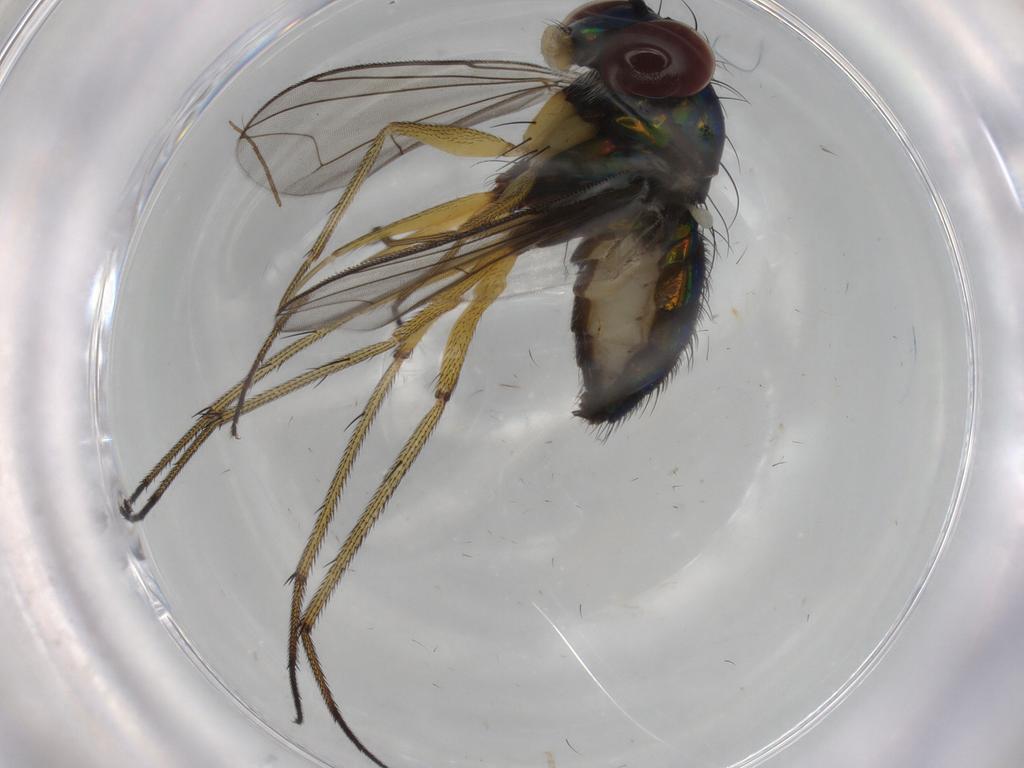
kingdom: Animalia
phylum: Arthropoda
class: Insecta
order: Diptera
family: Dolichopodidae
